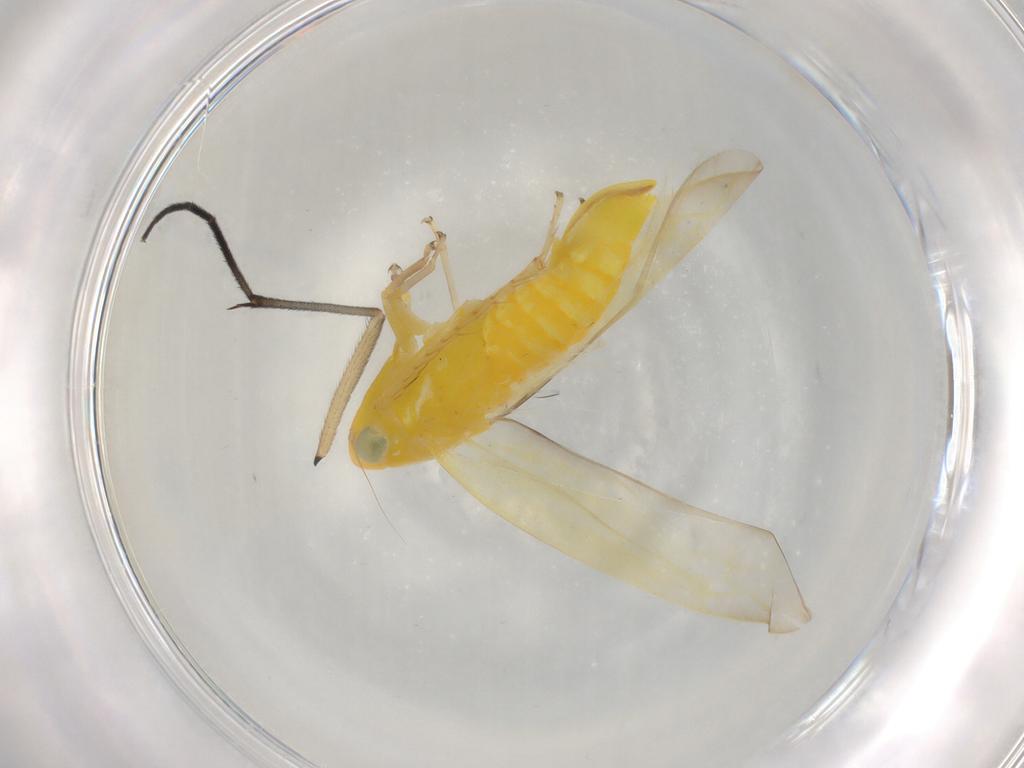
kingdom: Animalia
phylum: Arthropoda
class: Insecta
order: Hemiptera
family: Cicadellidae
